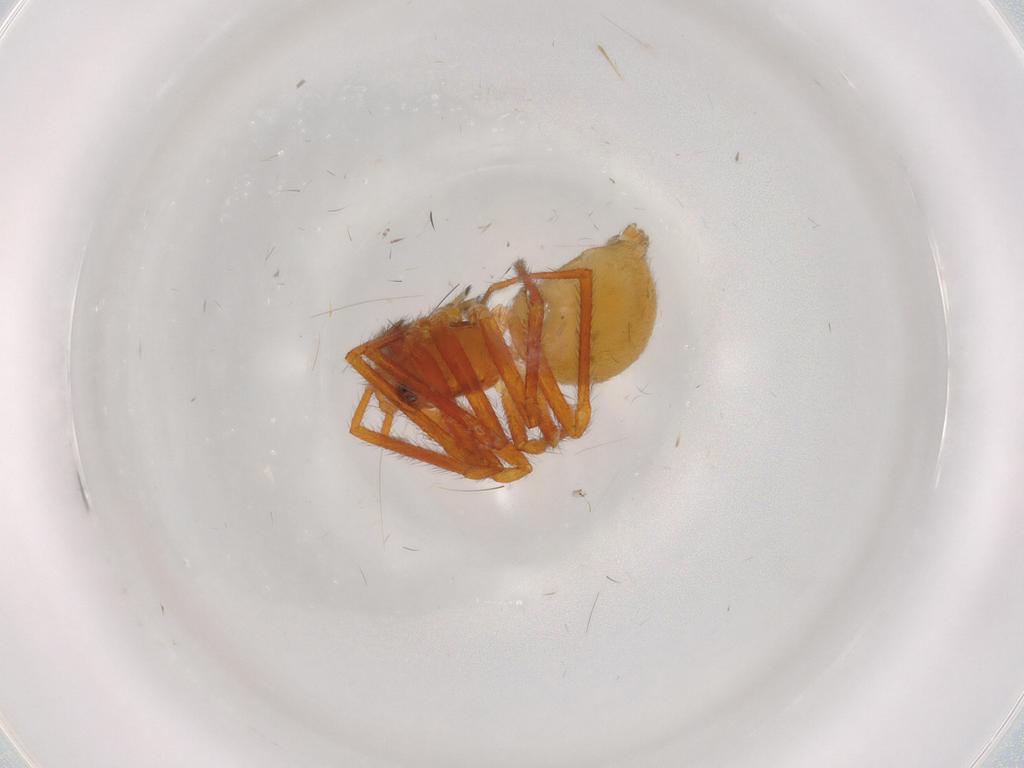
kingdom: Animalia
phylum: Arthropoda
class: Arachnida
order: Araneae
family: Linyphiidae
